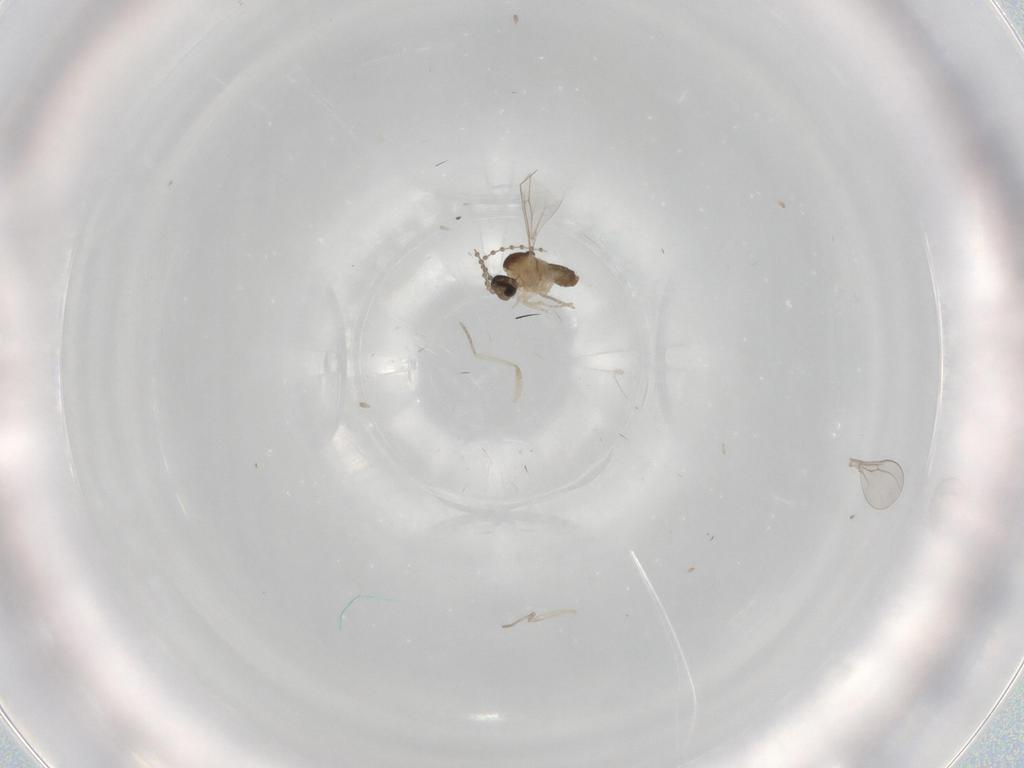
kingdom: Animalia
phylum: Arthropoda
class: Insecta
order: Diptera
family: Cecidomyiidae
